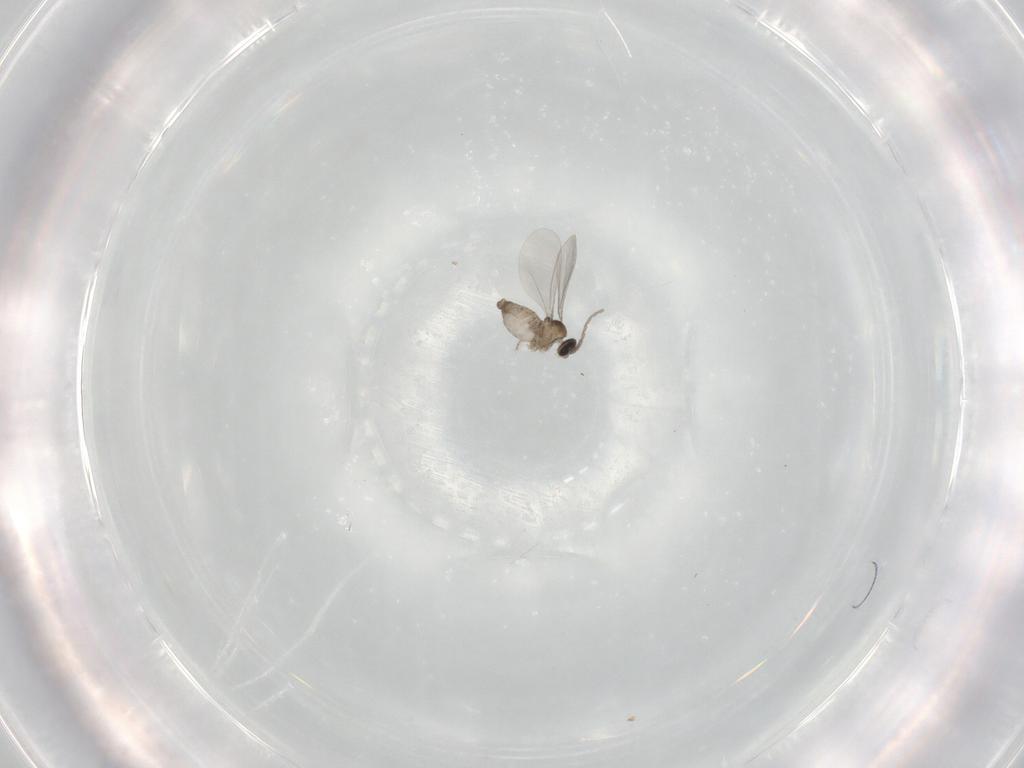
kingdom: Animalia
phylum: Arthropoda
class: Insecta
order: Diptera
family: Cecidomyiidae
